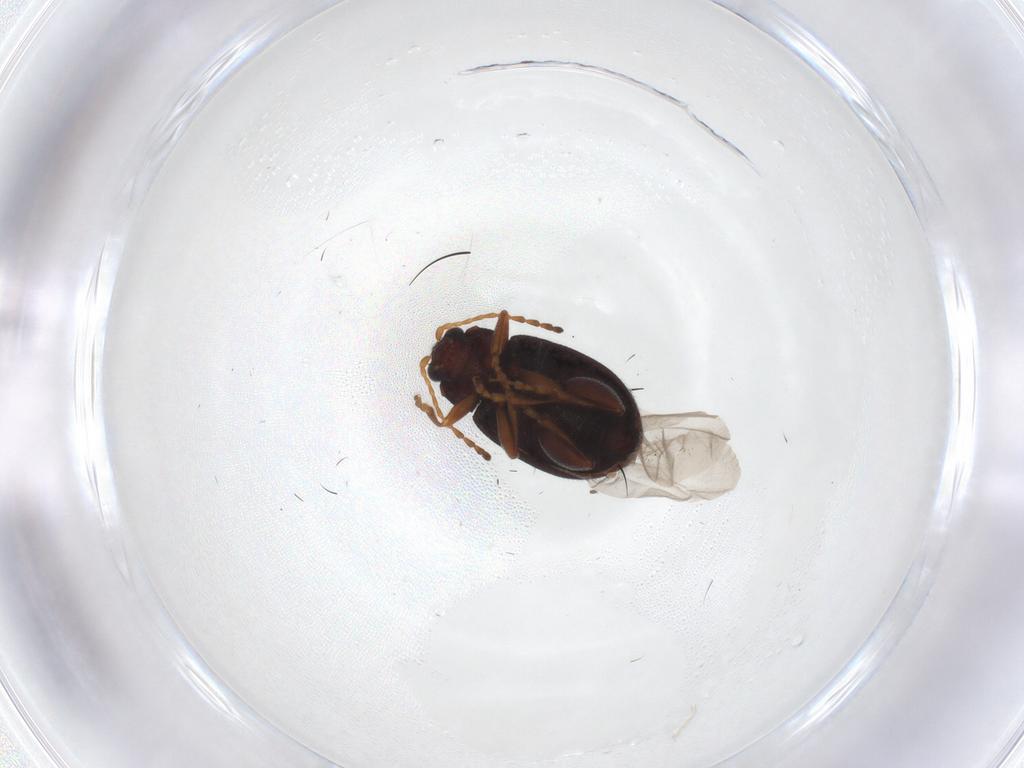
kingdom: Animalia
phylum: Arthropoda
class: Insecta
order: Coleoptera
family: Chrysomelidae
